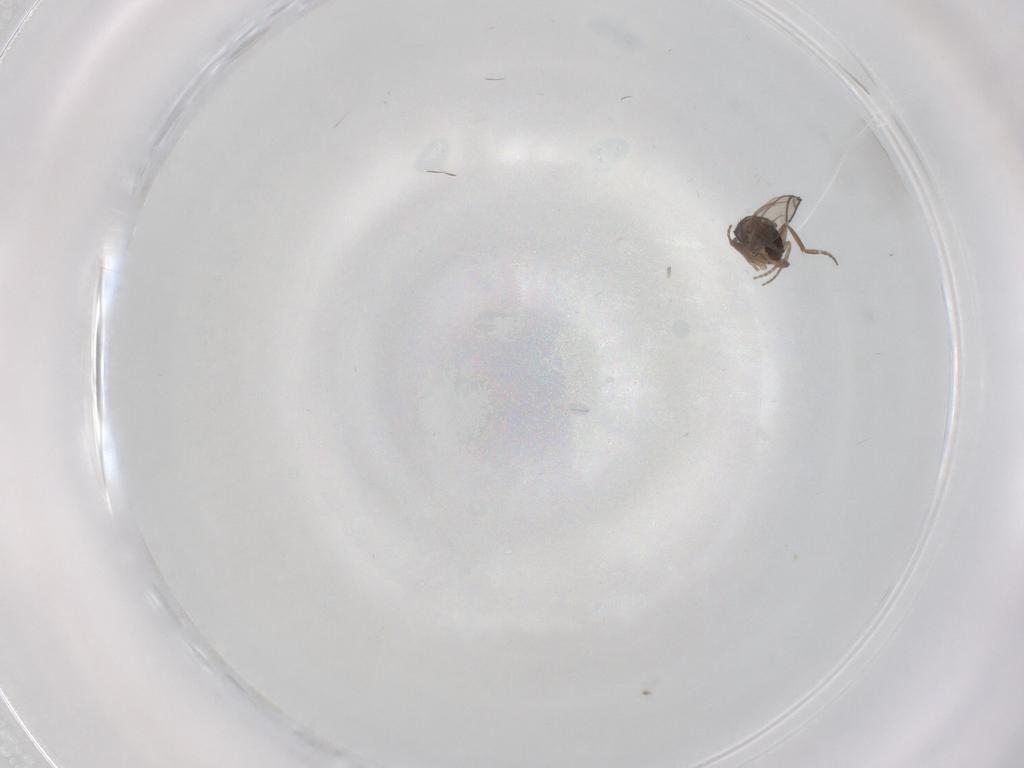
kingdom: Animalia
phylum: Arthropoda
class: Insecta
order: Diptera
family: Phoridae
